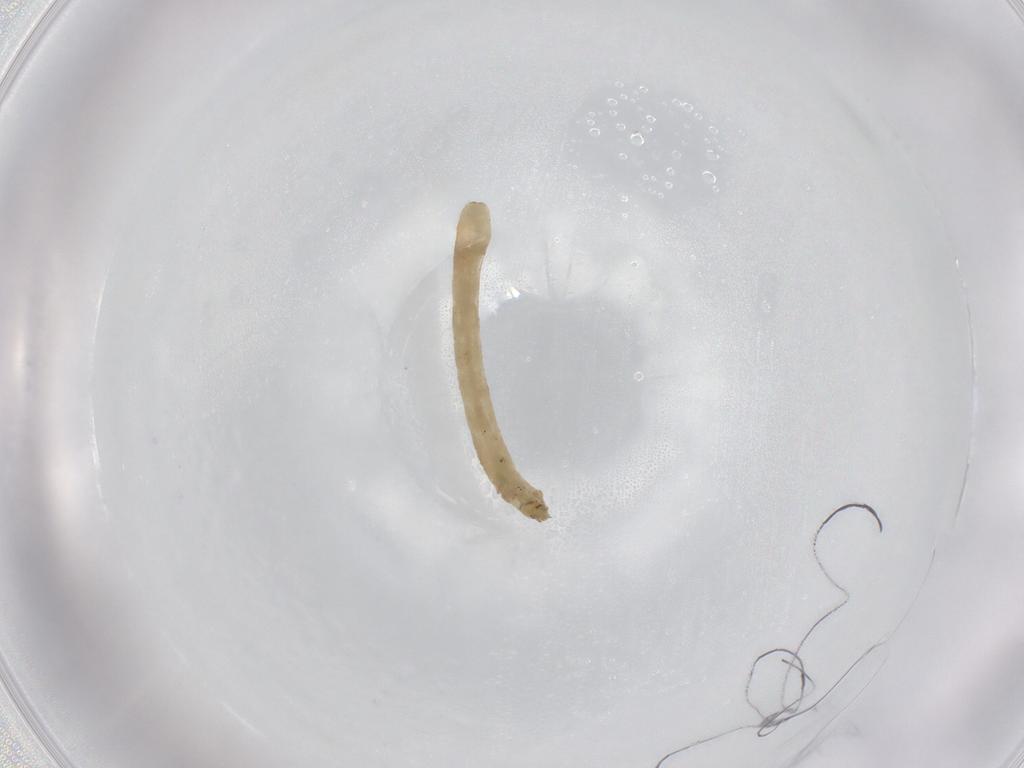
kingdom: Animalia
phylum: Arthropoda
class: Insecta
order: Diptera
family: Chironomidae
